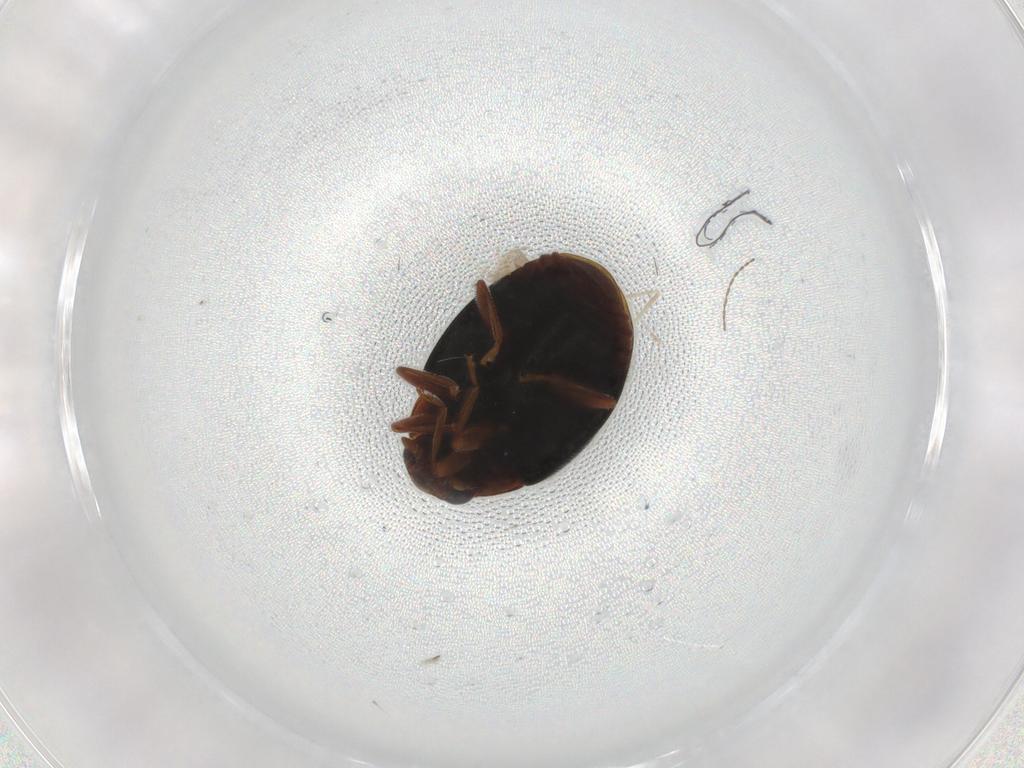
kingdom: Animalia
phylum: Arthropoda
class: Insecta
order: Coleoptera
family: Coccinellidae
